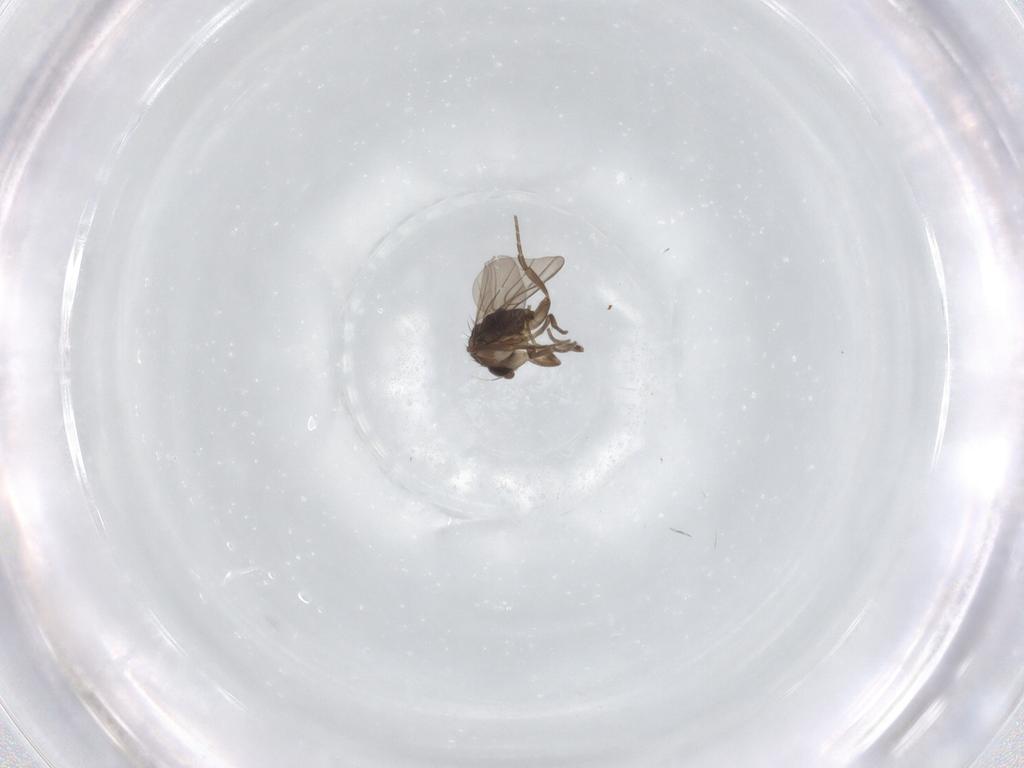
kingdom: Animalia
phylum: Arthropoda
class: Insecta
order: Diptera
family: Phoridae
